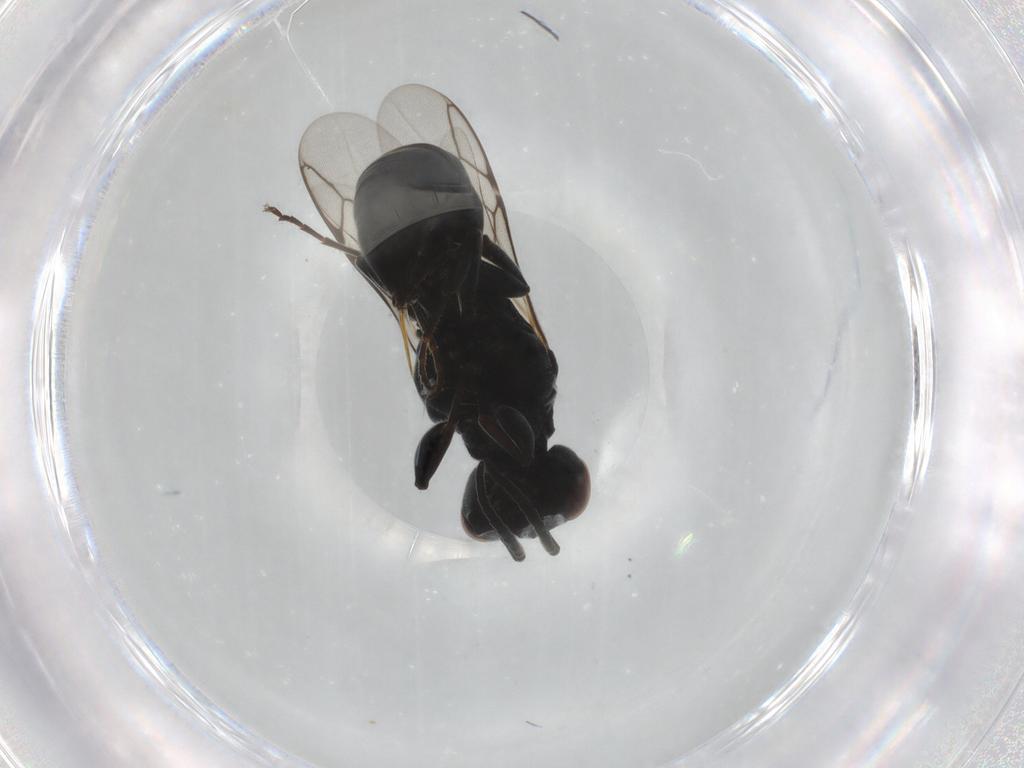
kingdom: Animalia
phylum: Arthropoda
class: Insecta
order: Hymenoptera
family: Crabronidae
